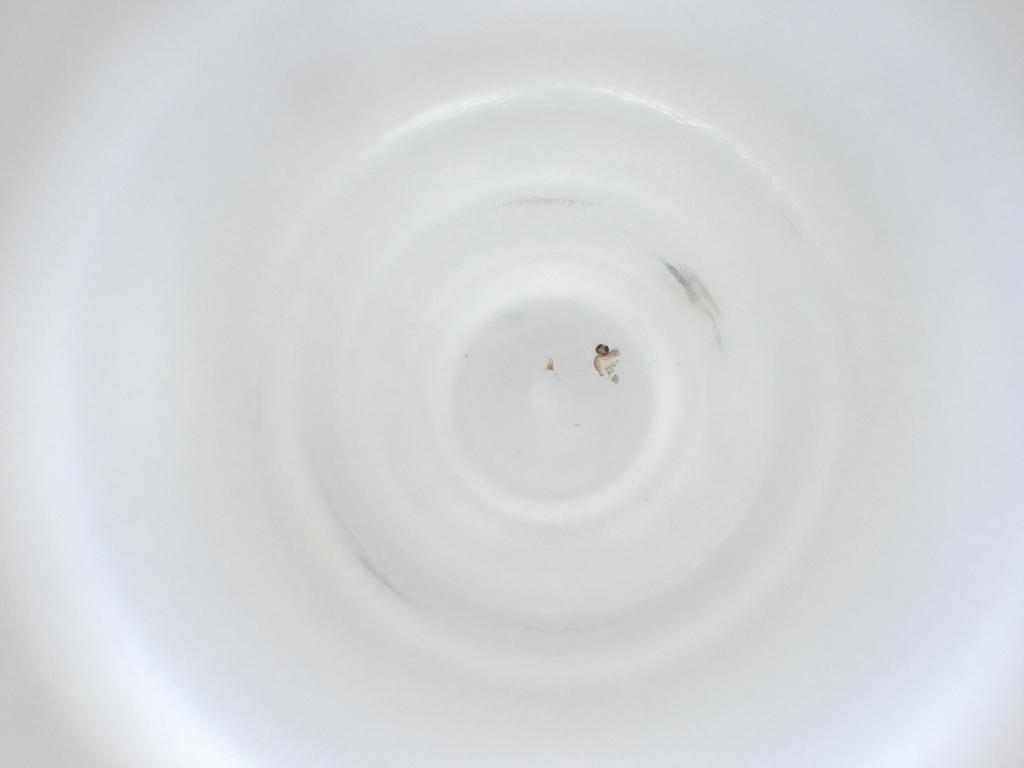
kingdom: Animalia
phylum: Arthropoda
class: Insecta
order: Diptera
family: Cecidomyiidae
